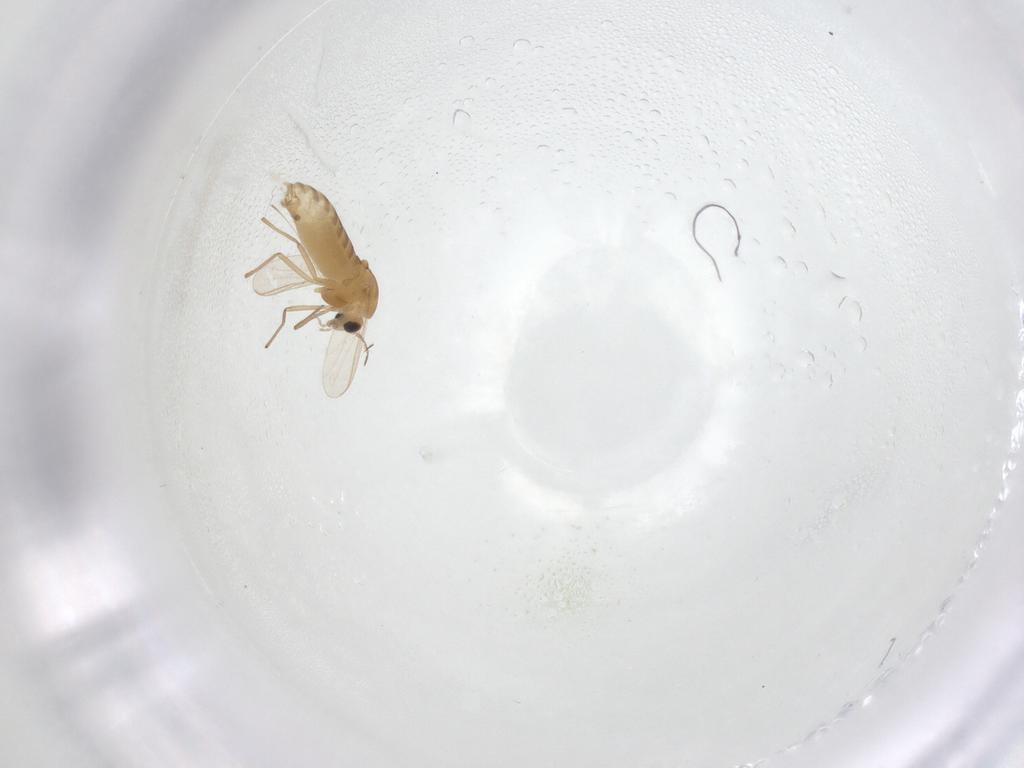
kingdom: Animalia
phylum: Arthropoda
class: Insecta
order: Diptera
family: Chironomidae
